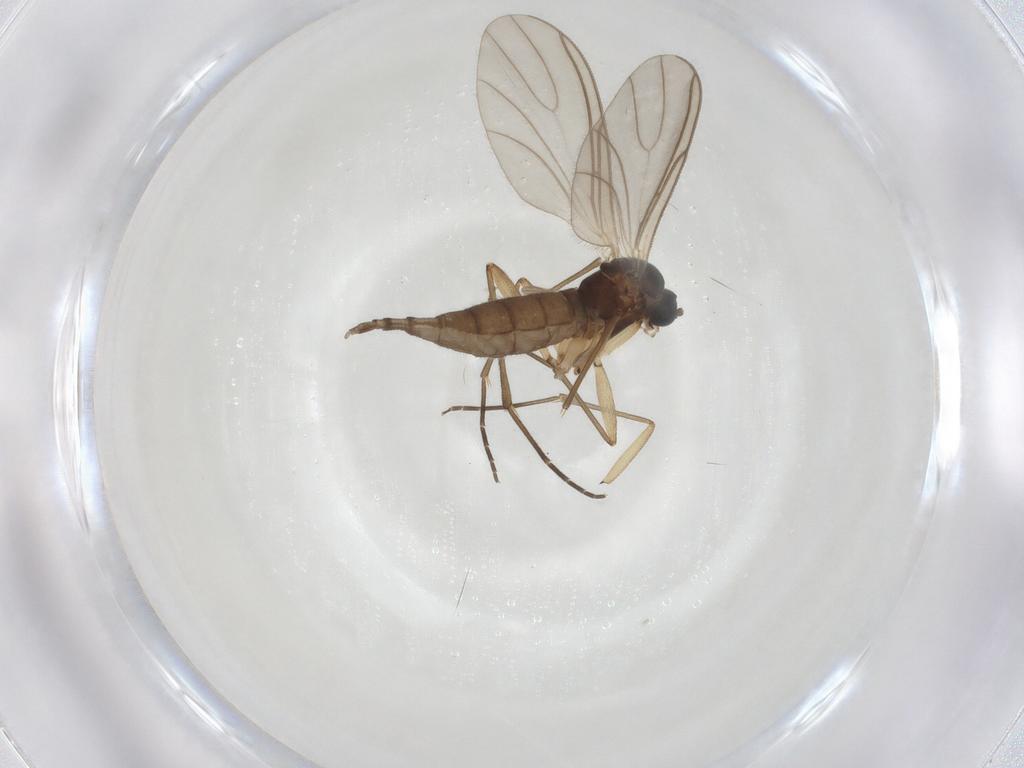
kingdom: Animalia
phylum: Arthropoda
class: Insecta
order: Diptera
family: Sciaridae
